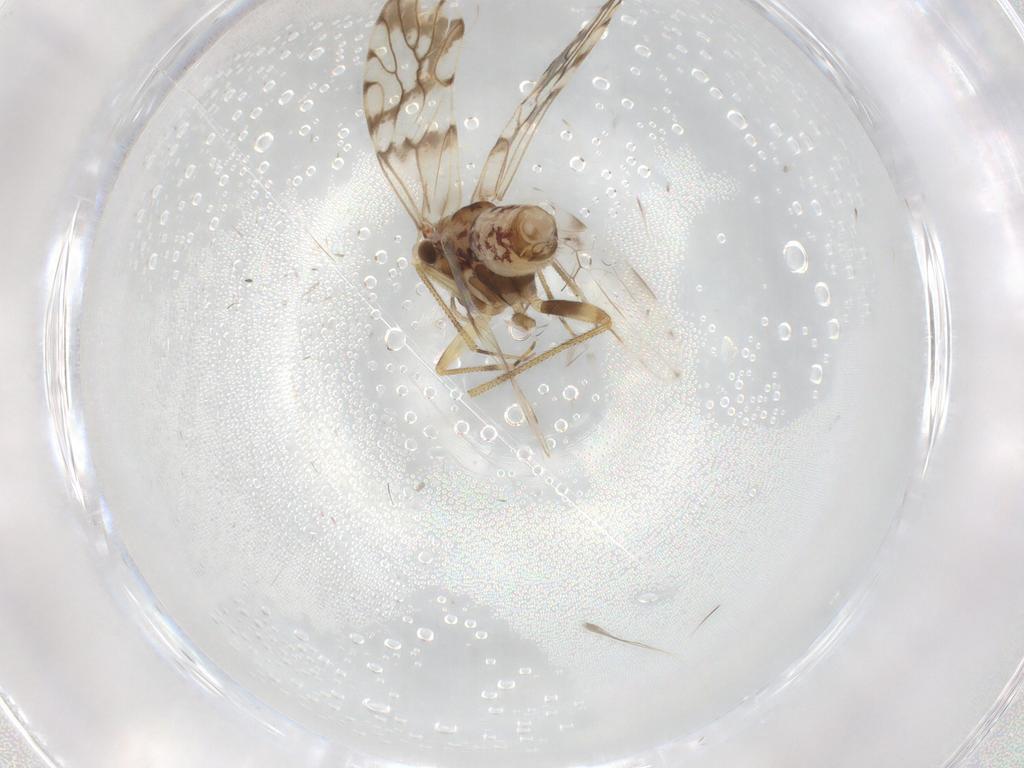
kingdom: Animalia
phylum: Arthropoda
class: Insecta
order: Psocodea
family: Epipsocidae
